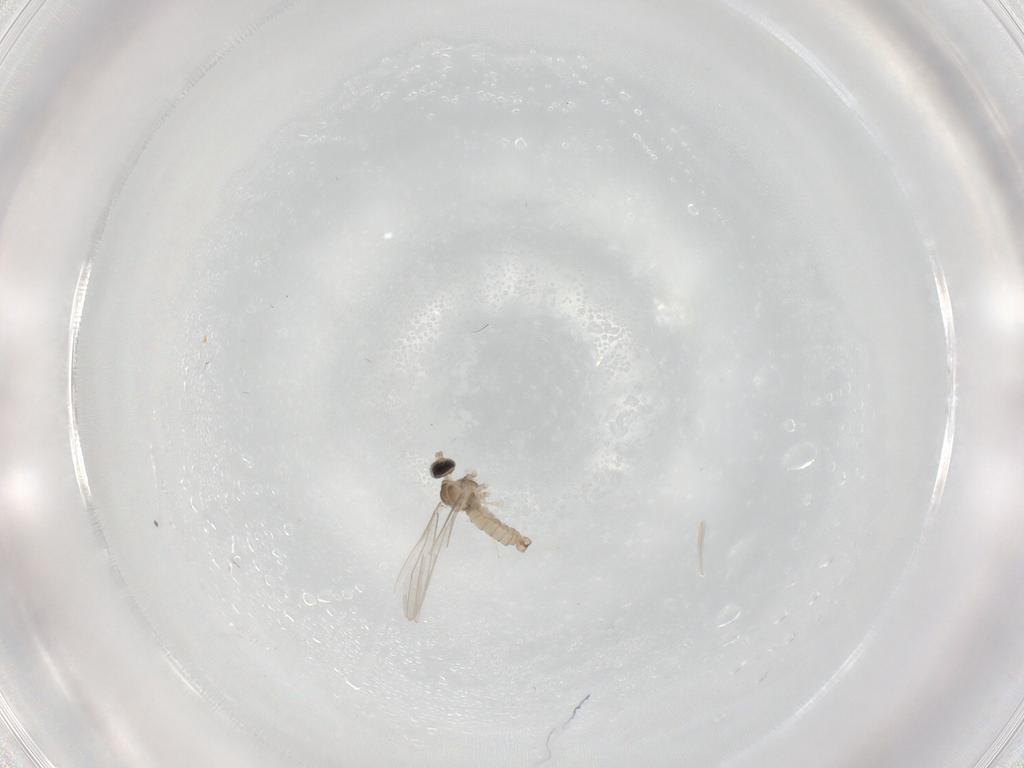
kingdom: Animalia
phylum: Arthropoda
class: Insecta
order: Diptera
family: Ceratopogonidae
